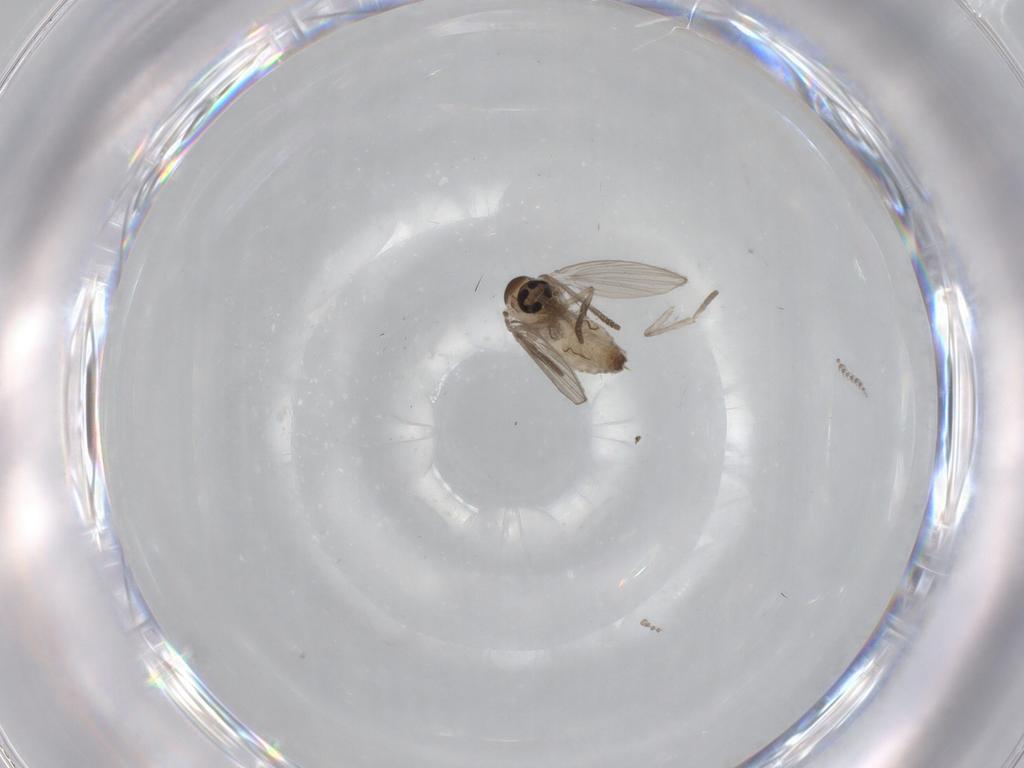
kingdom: Animalia
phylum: Arthropoda
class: Insecta
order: Diptera
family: Psychodidae
